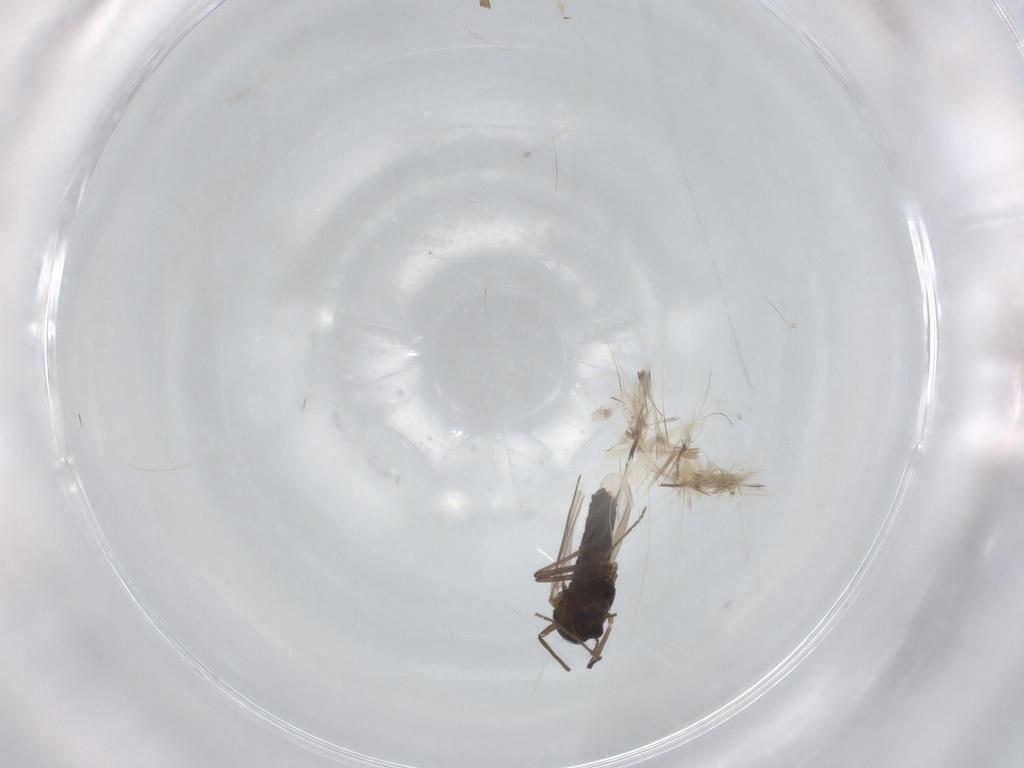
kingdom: Animalia
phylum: Arthropoda
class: Insecta
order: Diptera
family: Chironomidae
